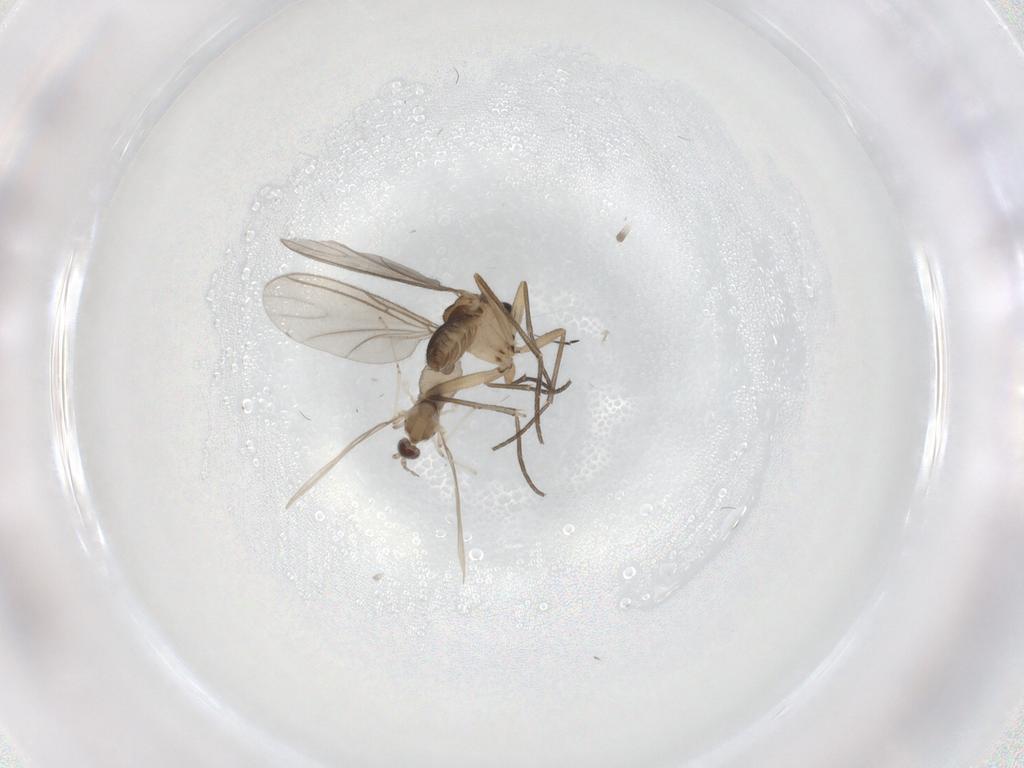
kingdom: Animalia
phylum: Arthropoda
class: Insecta
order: Diptera
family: Sciaridae
